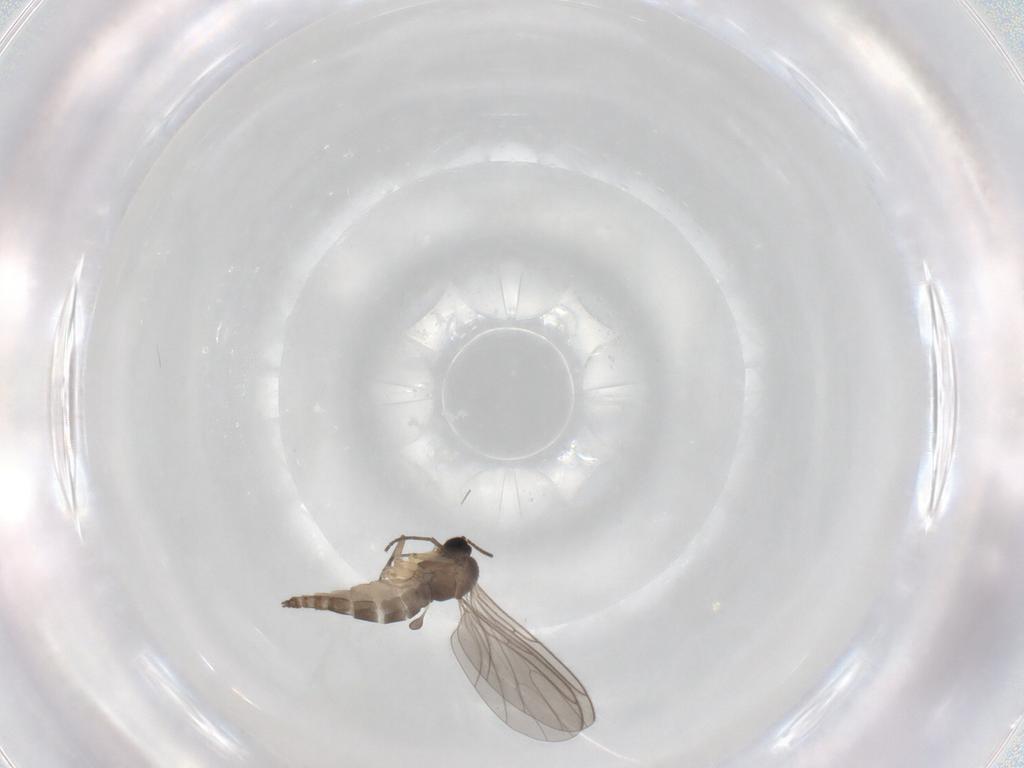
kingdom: Animalia
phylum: Arthropoda
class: Insecta
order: Diptera
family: Sciaridae
